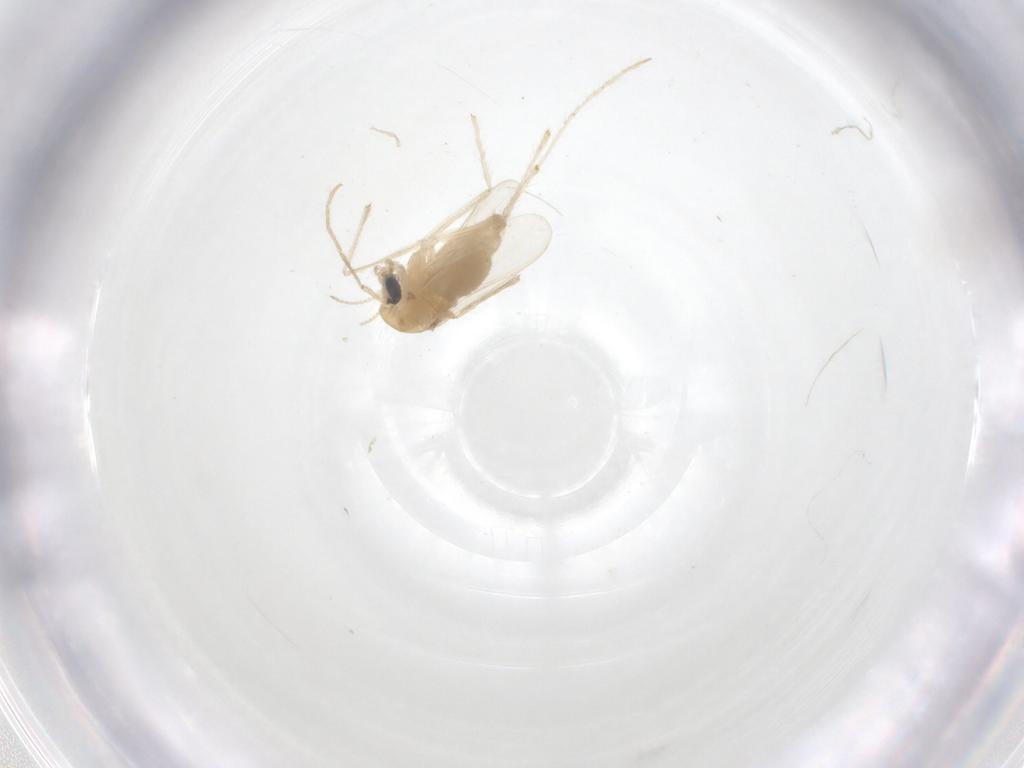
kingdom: Animalia
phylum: Arthropoda
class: Insecta
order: Diptera
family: Chironomidae
